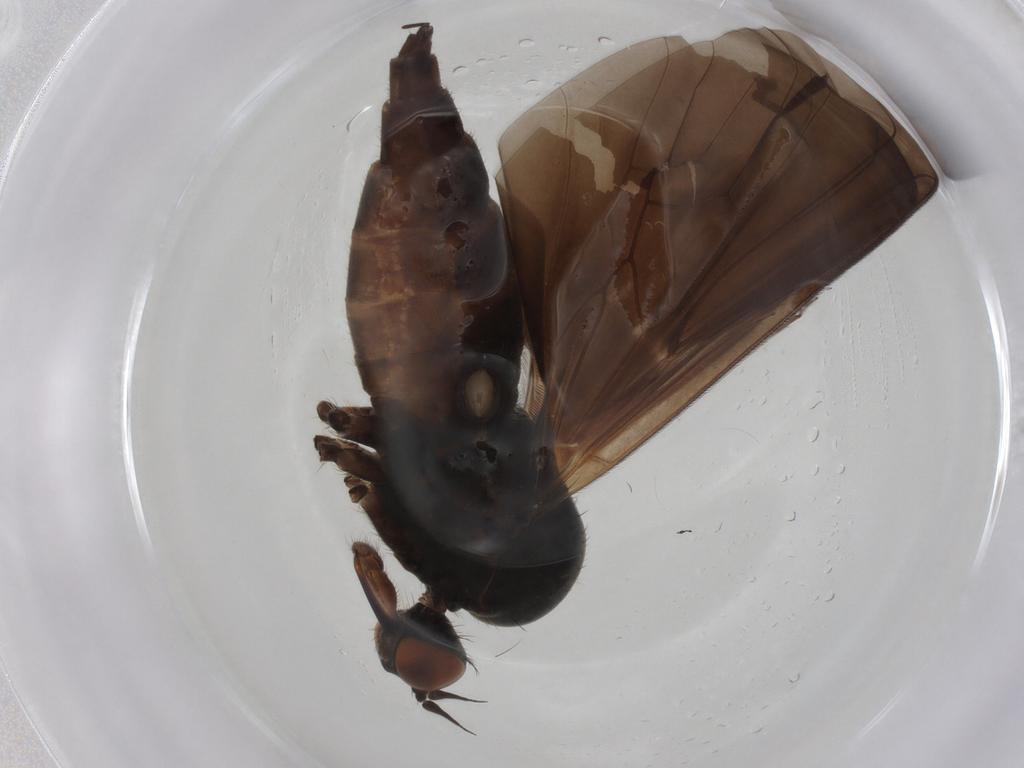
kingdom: Animalia
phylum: Arthropoda
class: Insecta
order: Diptera
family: Empididae
